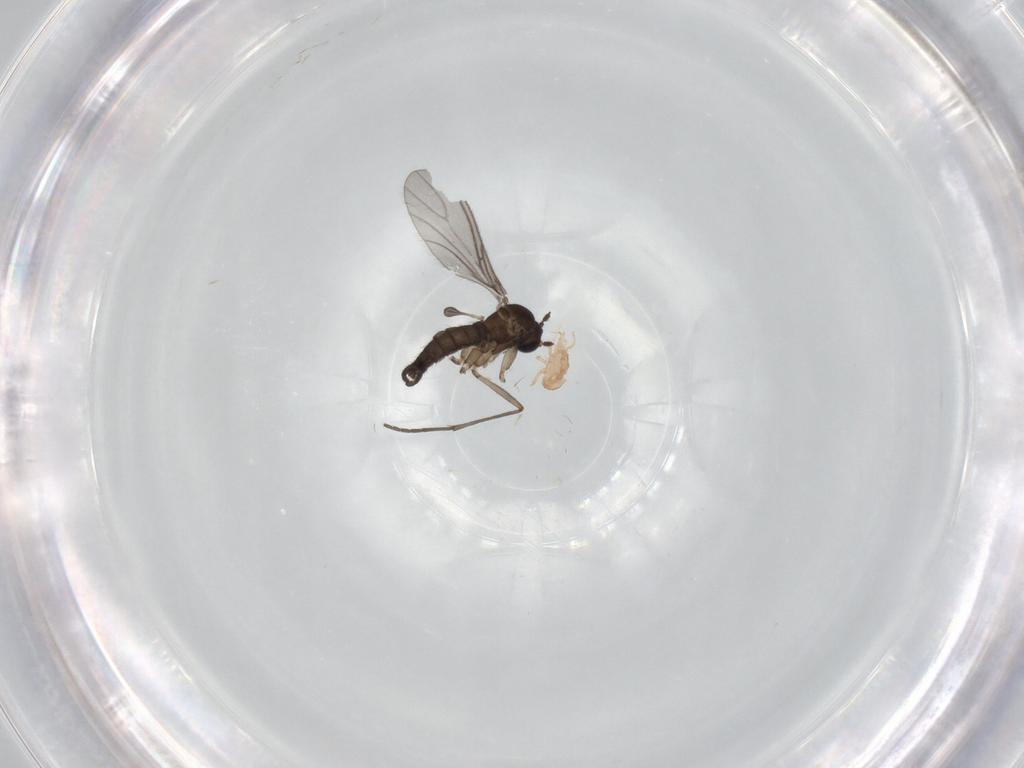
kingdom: Animalia
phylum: Arthropoda
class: Insecta
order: Diptera
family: Sciaridae
